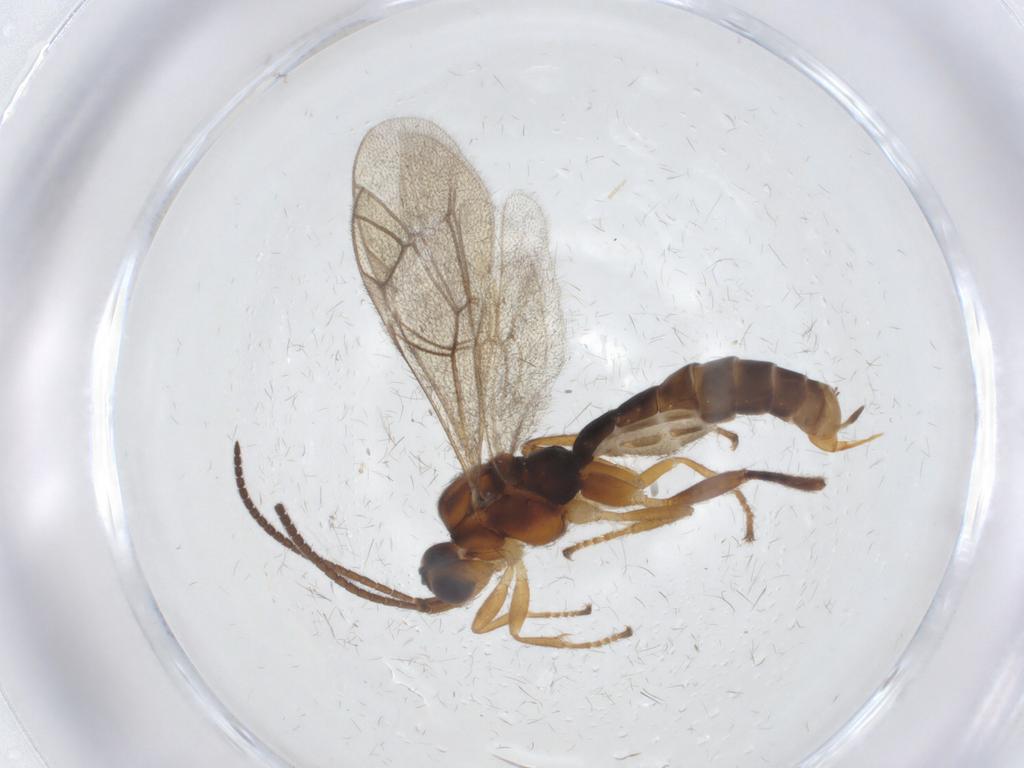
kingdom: Animalia
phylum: Arthropoda
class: Insecta
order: Hymenoptera
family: Ichneumonidae
